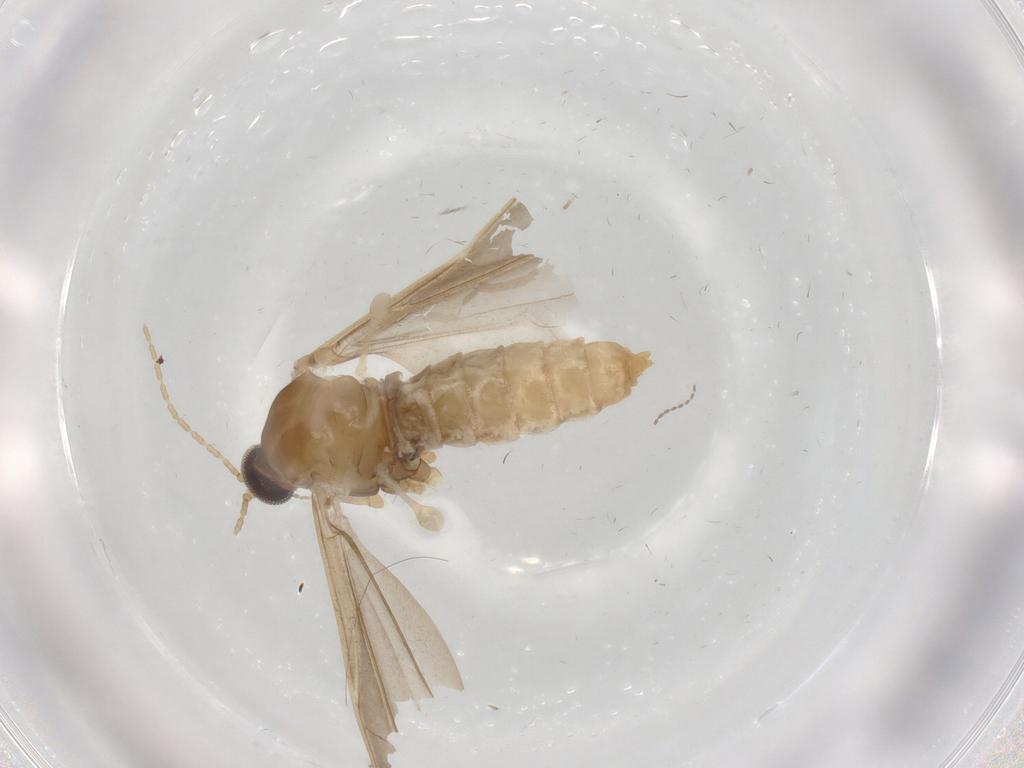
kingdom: Animalia
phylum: Arthropoda
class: Insecta
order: Diptera
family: Cecidomyiidae
